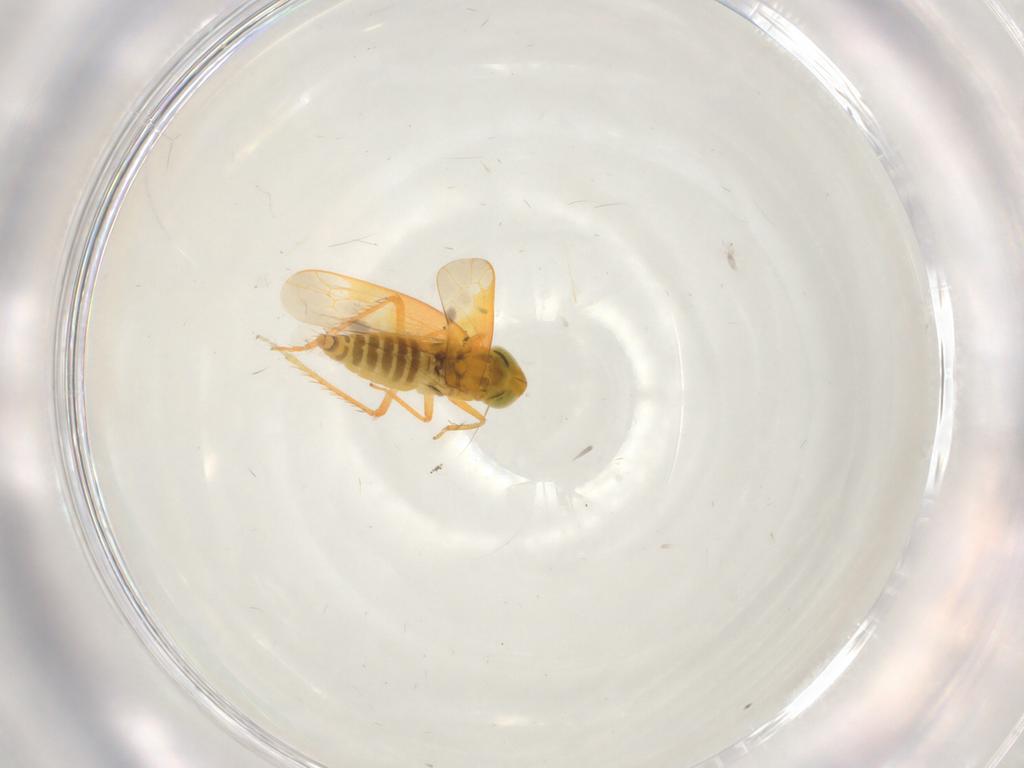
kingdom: Animalia
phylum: Arthropoda
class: Insecta
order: Hemiptera
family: Cicadellidae
